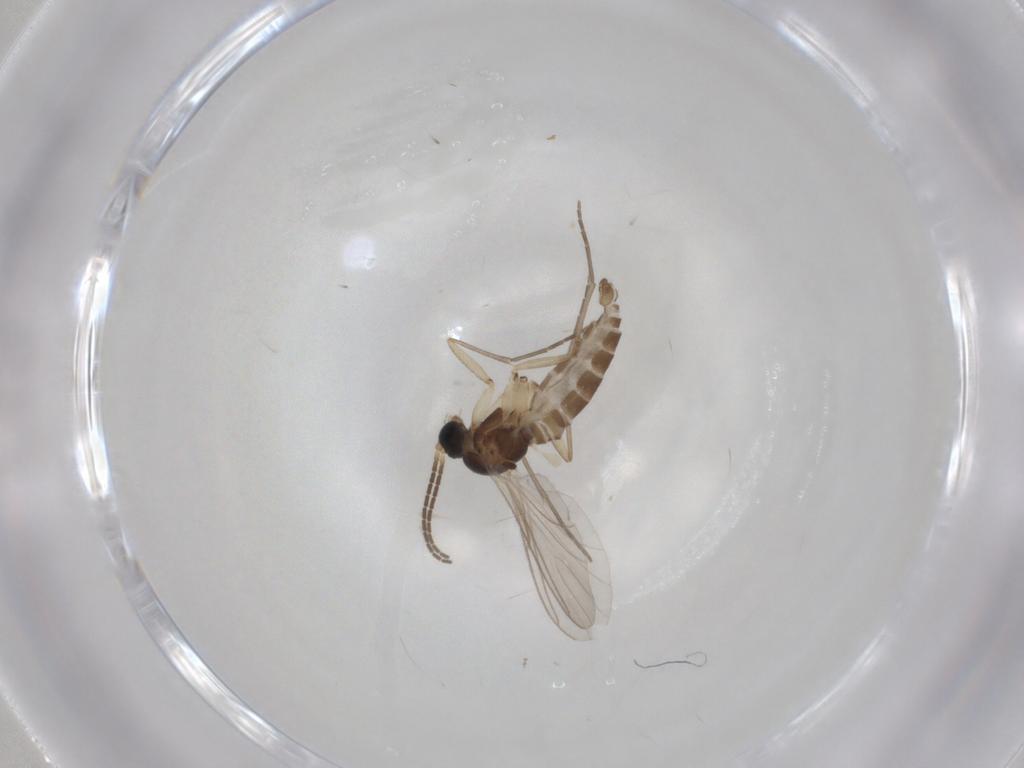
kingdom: Animalia
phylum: Arthropoda
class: Insecta
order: Diptera
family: Sciaridae
